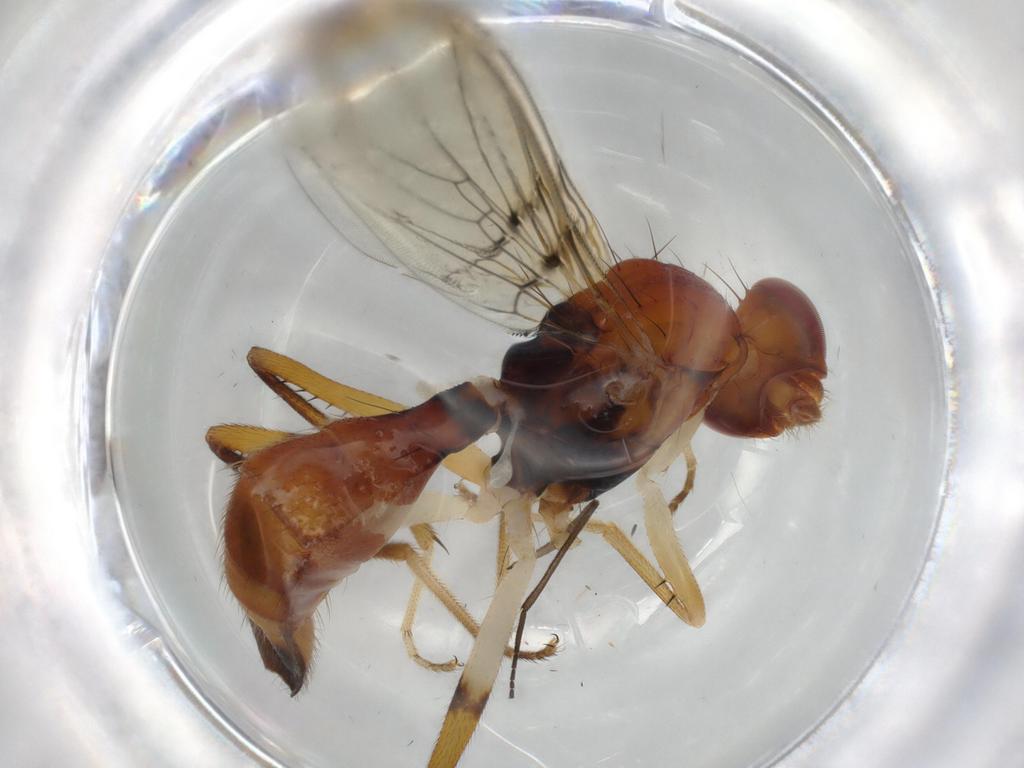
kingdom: Animalia
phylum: Arthropoda
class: Insecta
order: Diptera
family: Richardiidae
